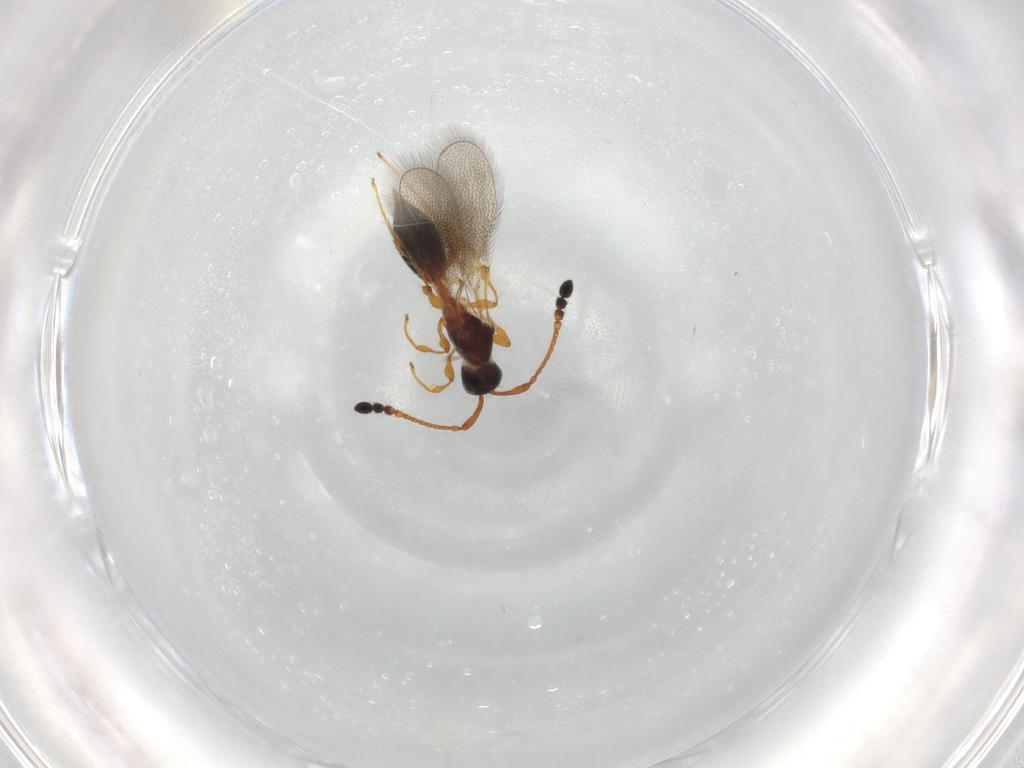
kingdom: Animalia
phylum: Arthropoda
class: Insecta
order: Hymenoptera
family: Diapriidae
